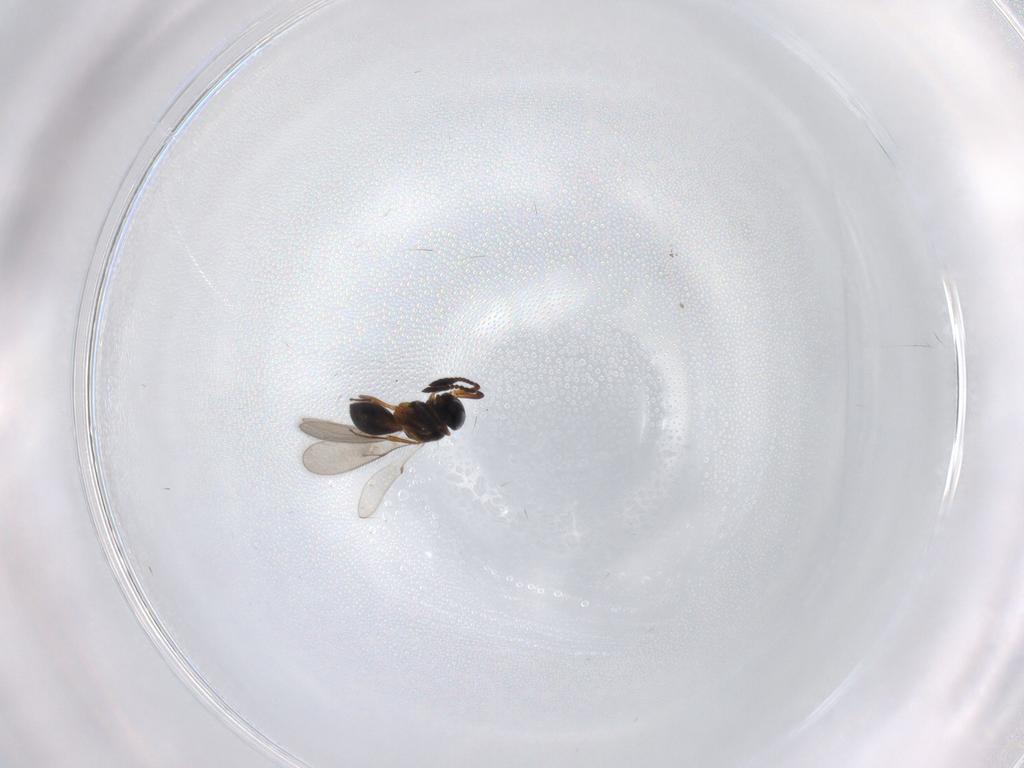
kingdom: Animalia
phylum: Arthropoda
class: Insecta
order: Hymenoptera
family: Scelionidae
